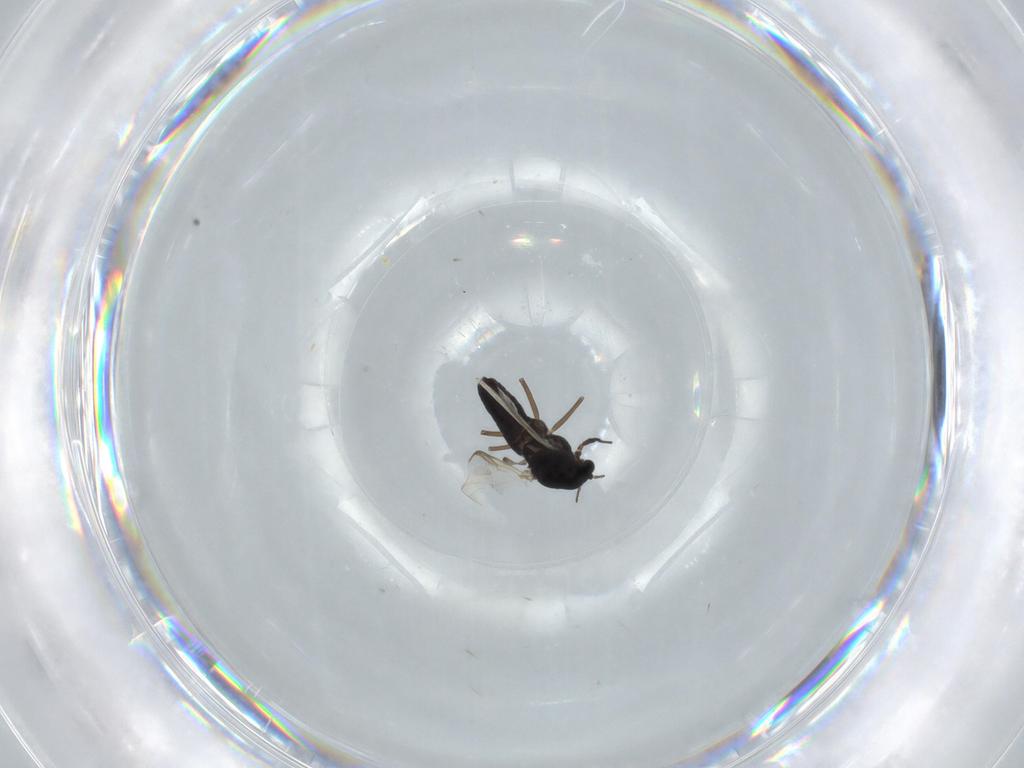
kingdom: Animalia
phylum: Arthropoda
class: Insecta
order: Diptera
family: Chironomidae
